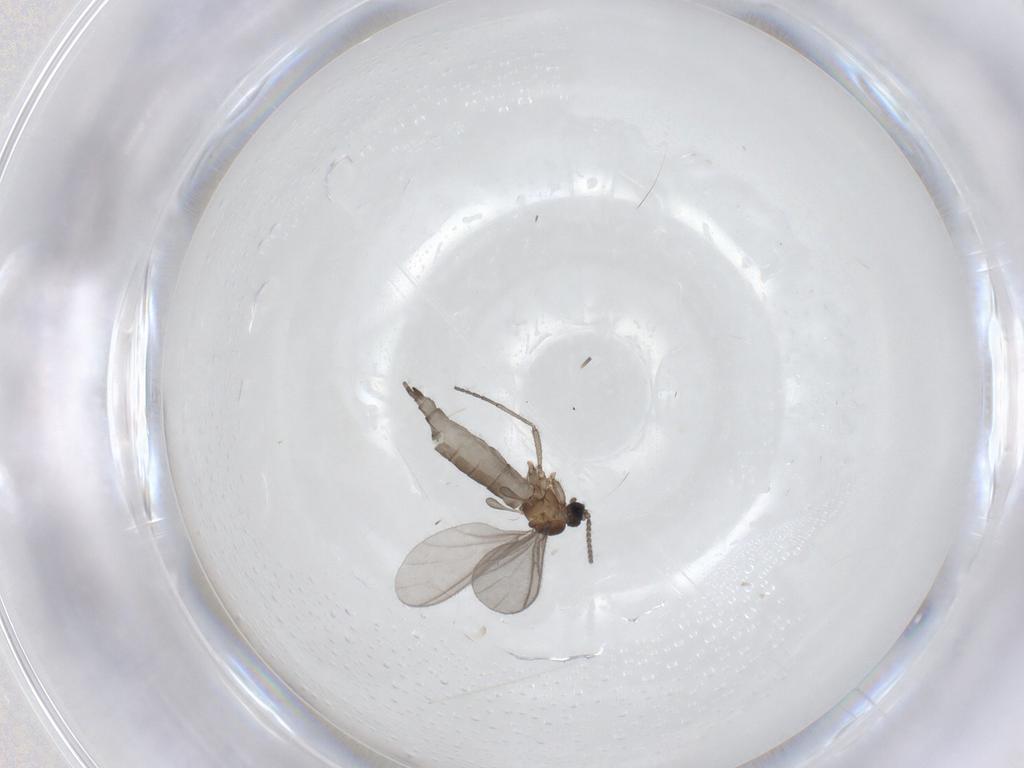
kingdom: Animalia
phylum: Arthropoda
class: Insecta
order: Diptera
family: Sciaridae
